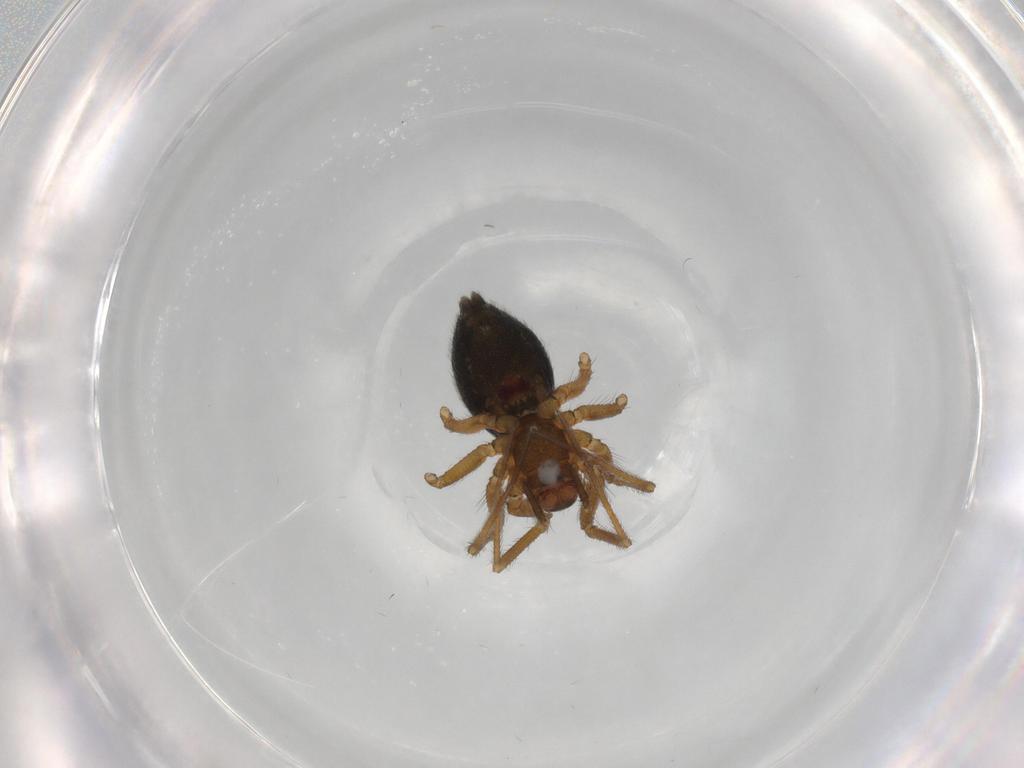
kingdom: Animalia
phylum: Arthropoda
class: Arachnida
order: Araneae
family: Linyphiidae
